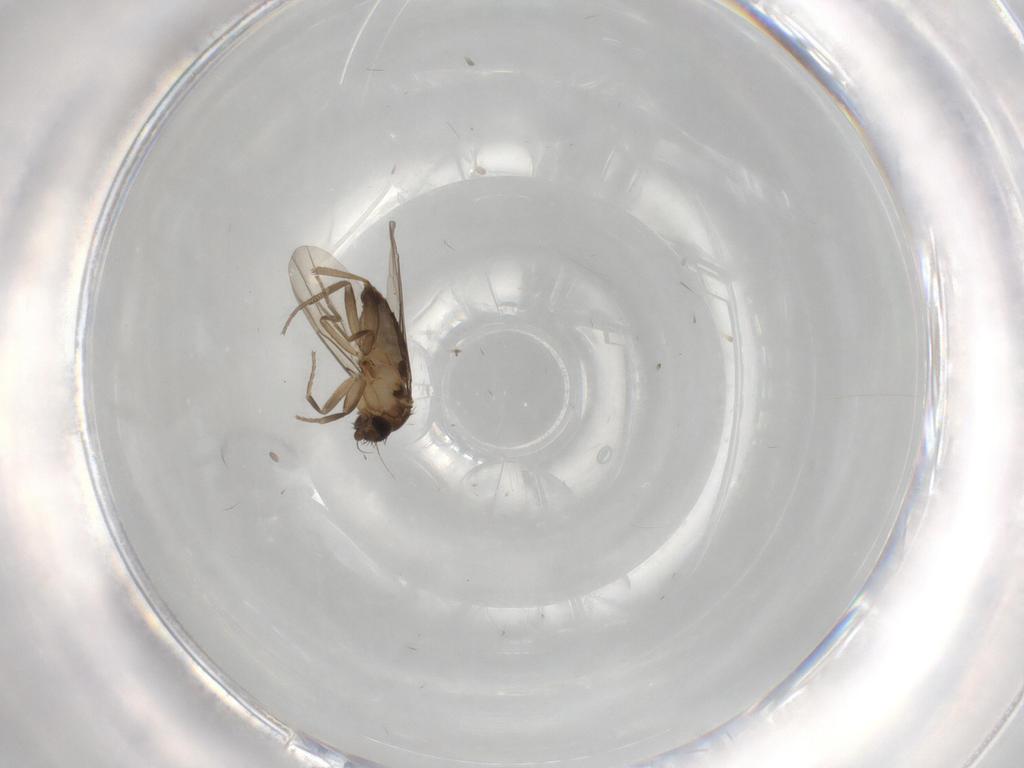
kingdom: Animalia
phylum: Arthropoda
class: Insecta
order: Diptera
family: Phoridae
